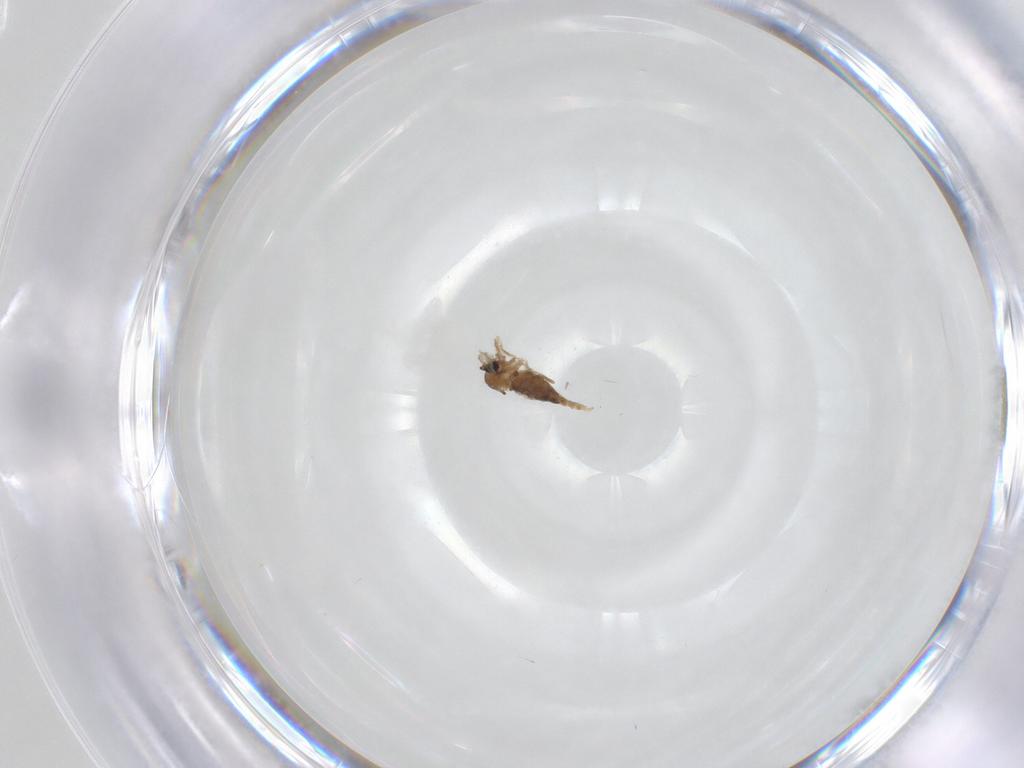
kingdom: Animalia
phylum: Arthropoda
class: Insecta
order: Diptera
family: Cecidomyiidae
